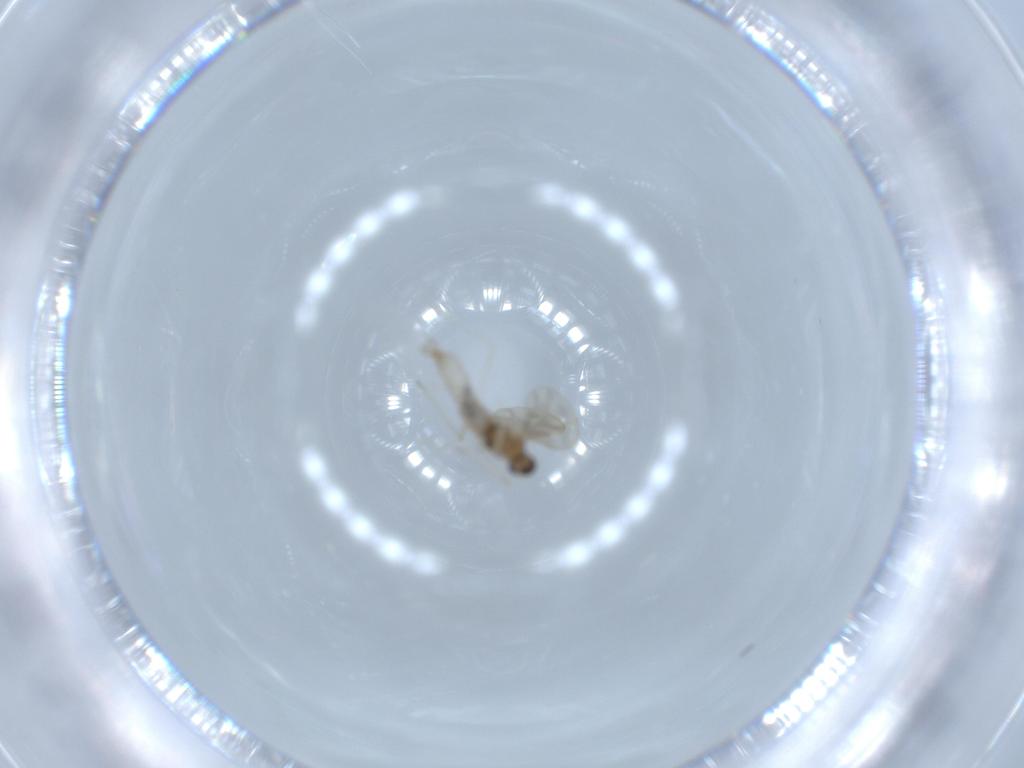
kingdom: Animalia
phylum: Arthropoda
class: Insecta
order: Diptera
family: Cecidomyiidae
